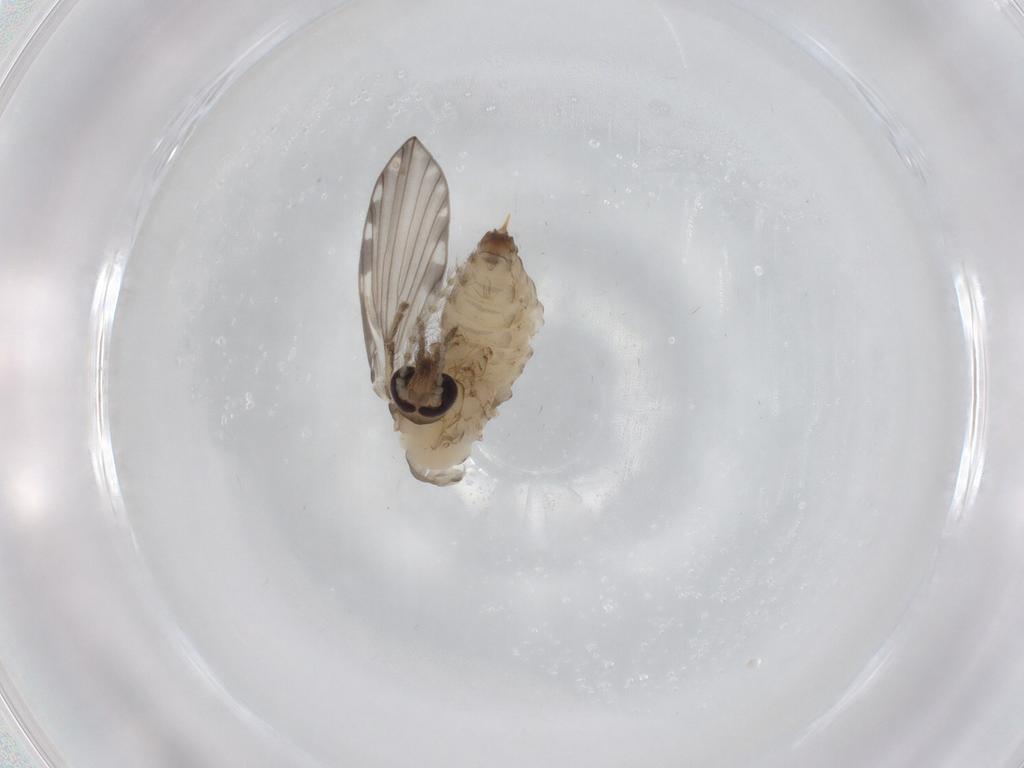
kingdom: Animalia
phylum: Arthropoda
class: Insecta
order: Diptera
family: Psychodidae
